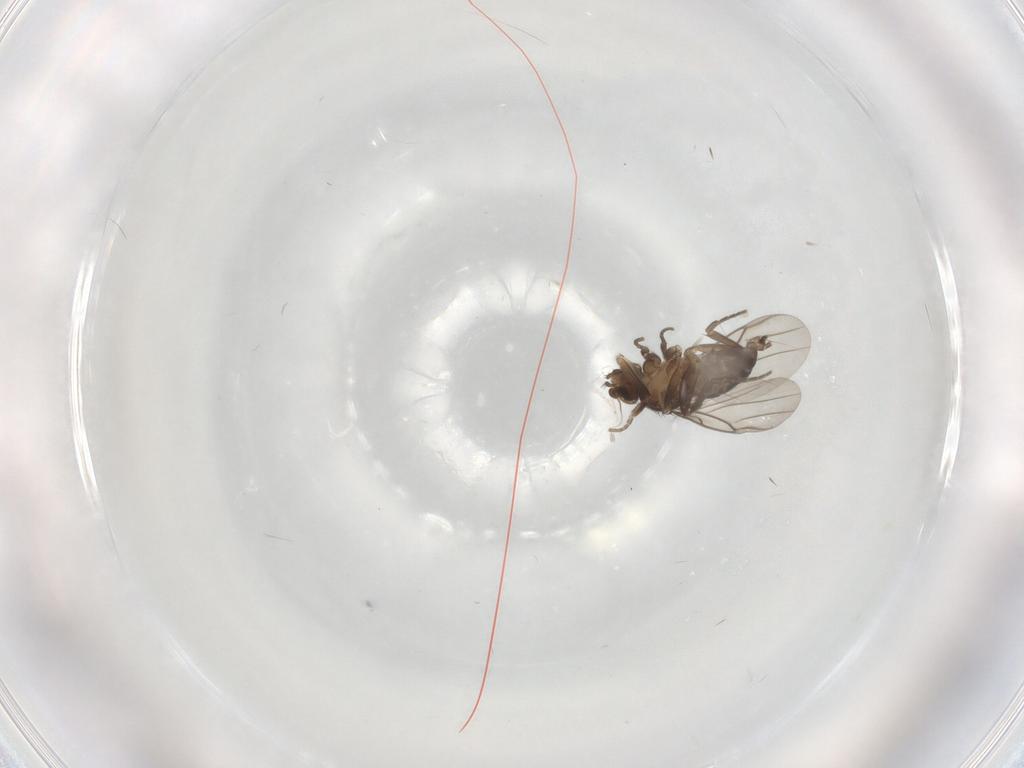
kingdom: Animalia
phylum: Arthropoda
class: Insecta
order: Diptera
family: Phoridae
